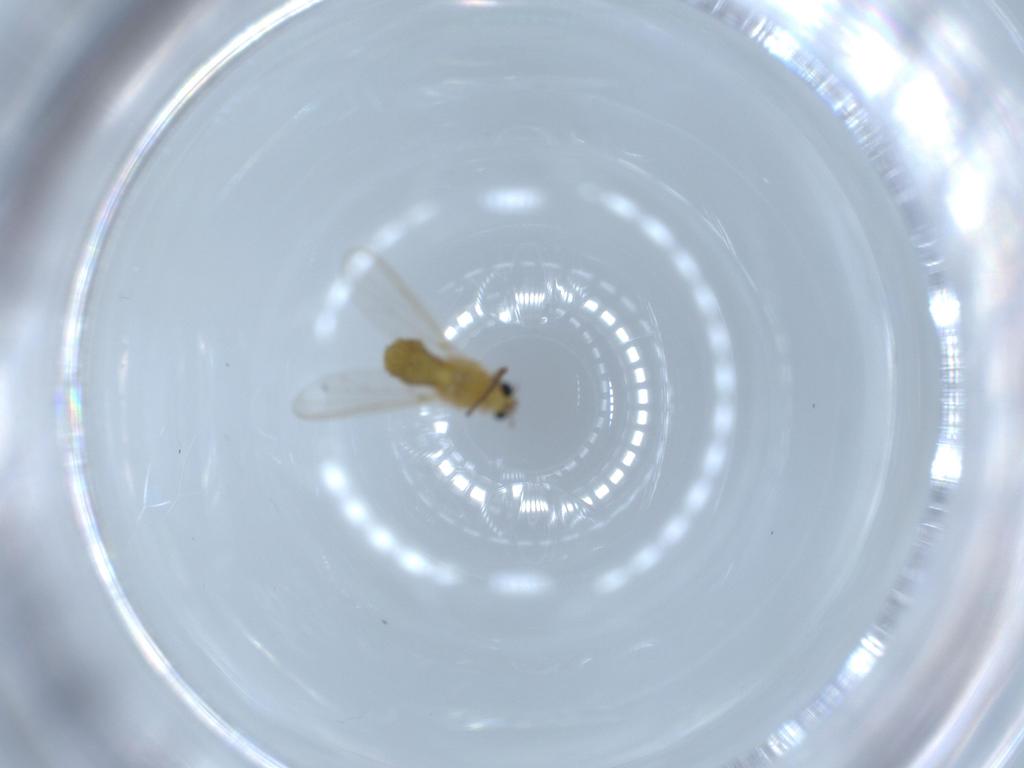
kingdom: Animalia
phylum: Arthropoda
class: Insecta
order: Diptera
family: Chironomidae
